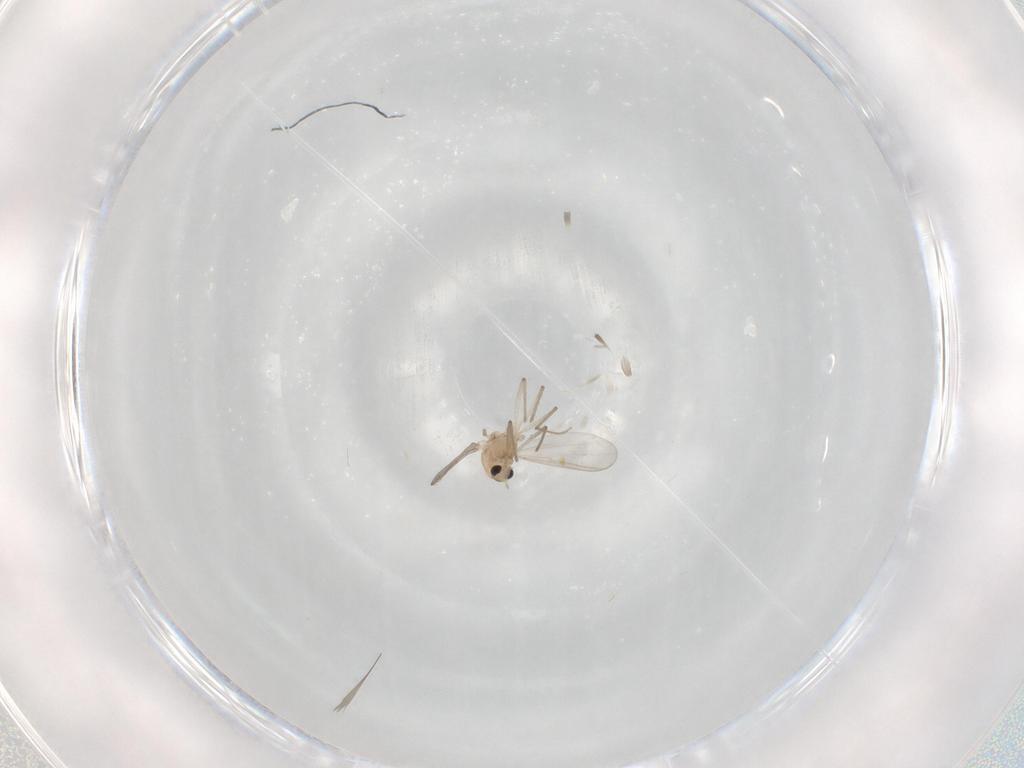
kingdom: Animalia
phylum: Arthropoda
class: Insecta
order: Diptera
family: Chironomidae
